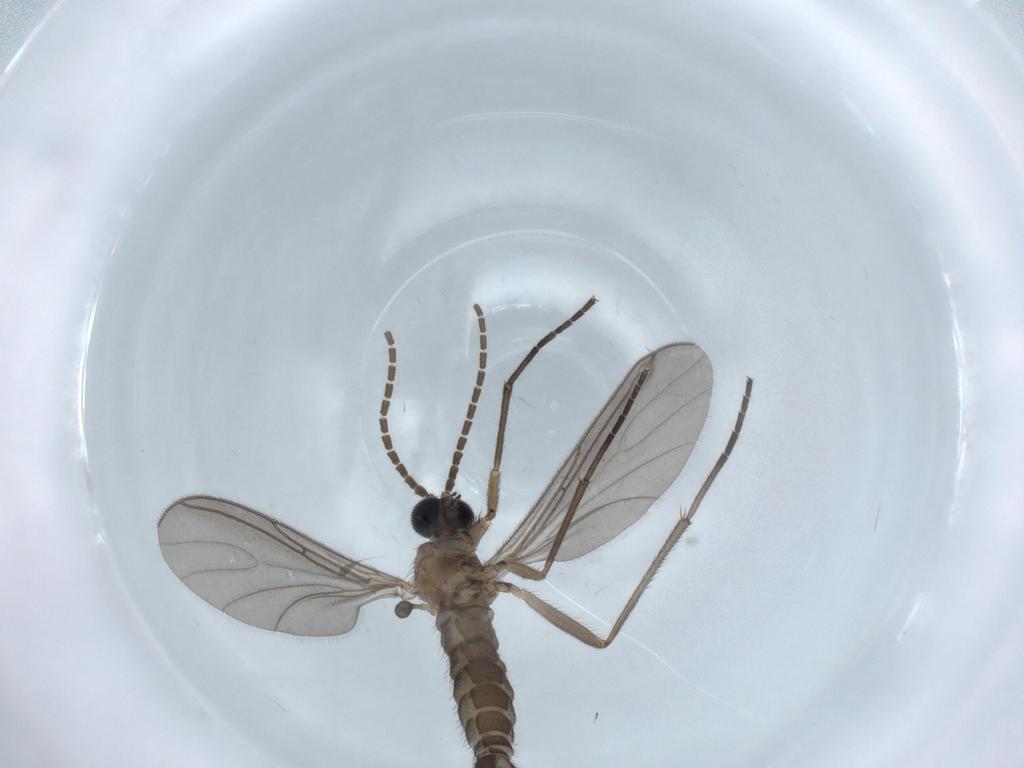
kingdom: Animalia
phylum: Arthropoda
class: Insecta
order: Diptera
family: Sciaridae
